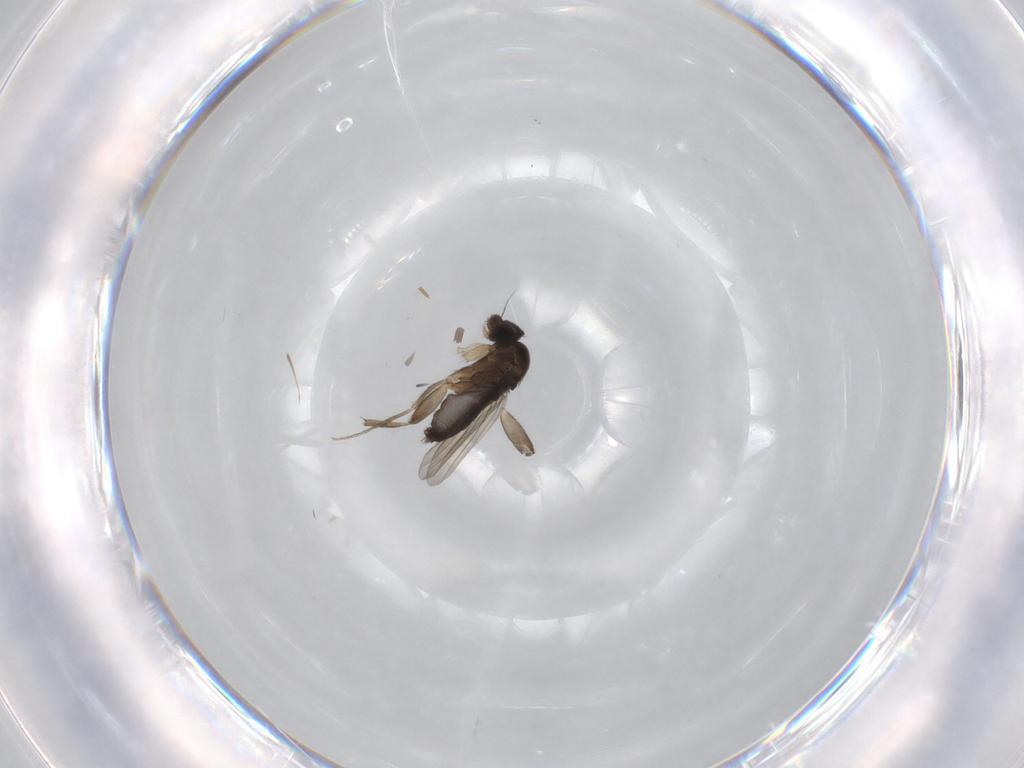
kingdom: Animalia
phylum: Arthropoda
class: Insecta
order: Diptera
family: Phoridae
